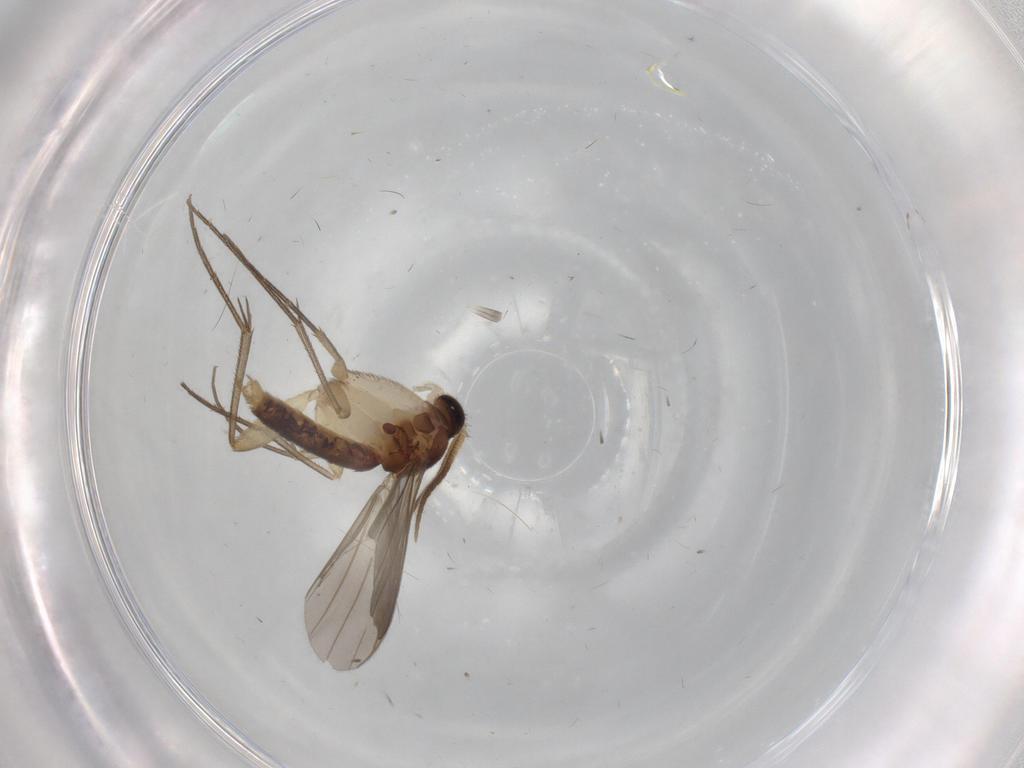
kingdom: Animalia
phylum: Arthropoda
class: Insecta
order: Diptera
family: Mycetophilidae
